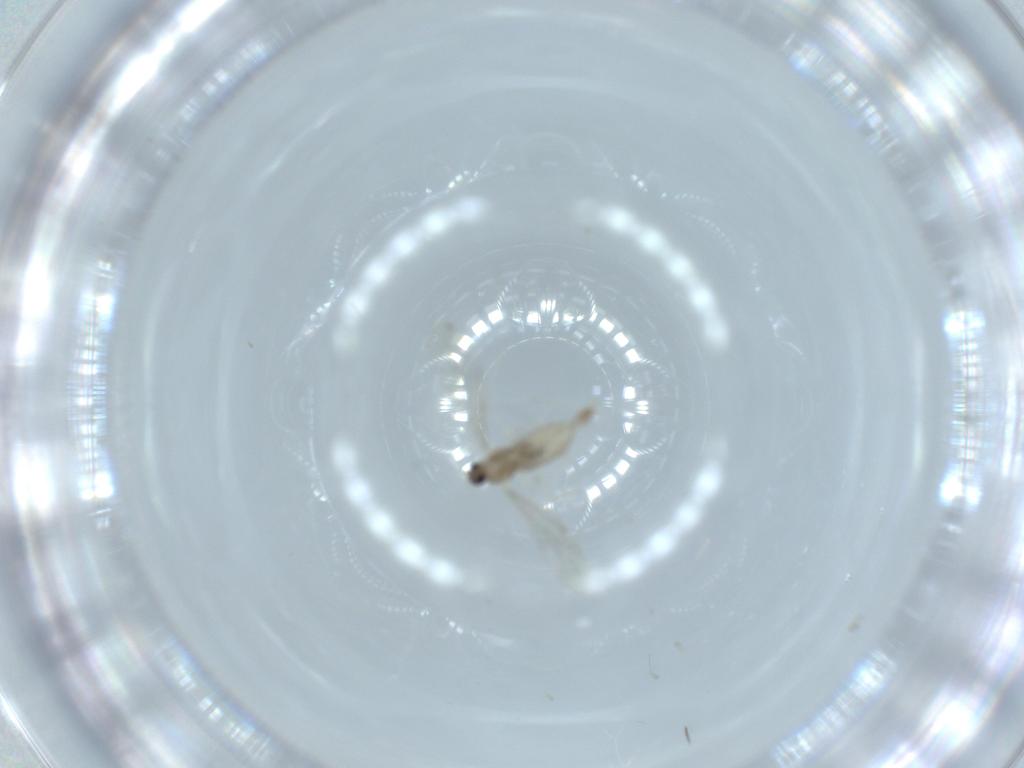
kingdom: Animalia
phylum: Arthropoda
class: Insecta
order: Diptera
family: Cecidomyiidae
